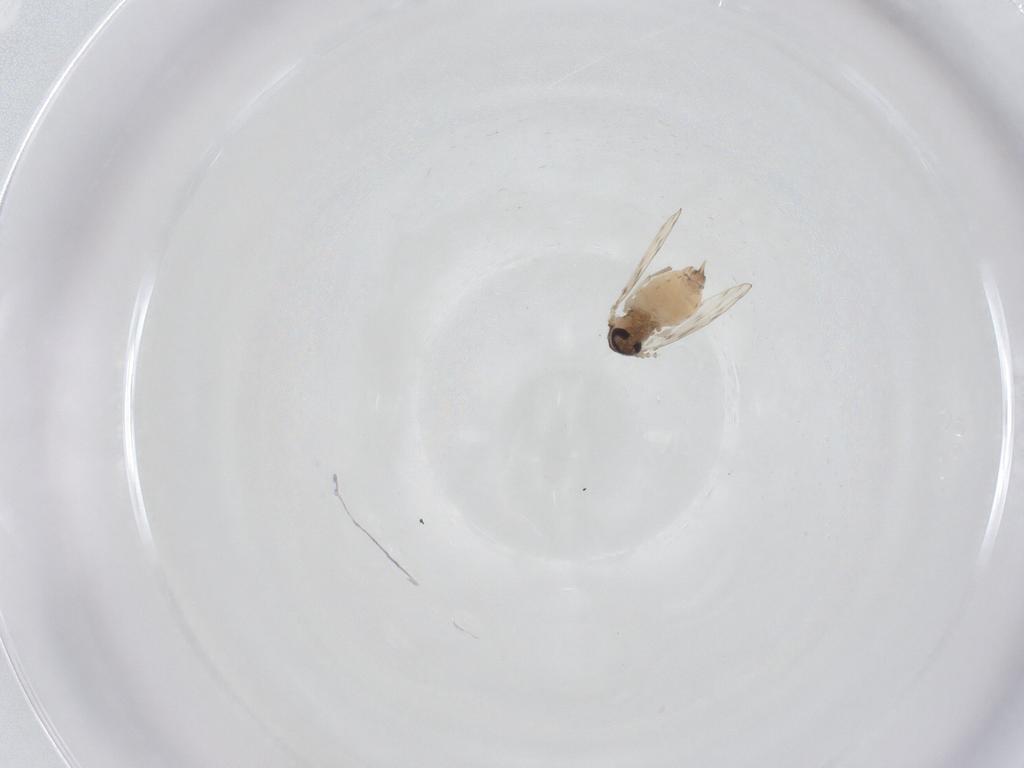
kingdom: Animalia
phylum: Arthropoda
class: Insecta
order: Diptera
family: Psychodidae
